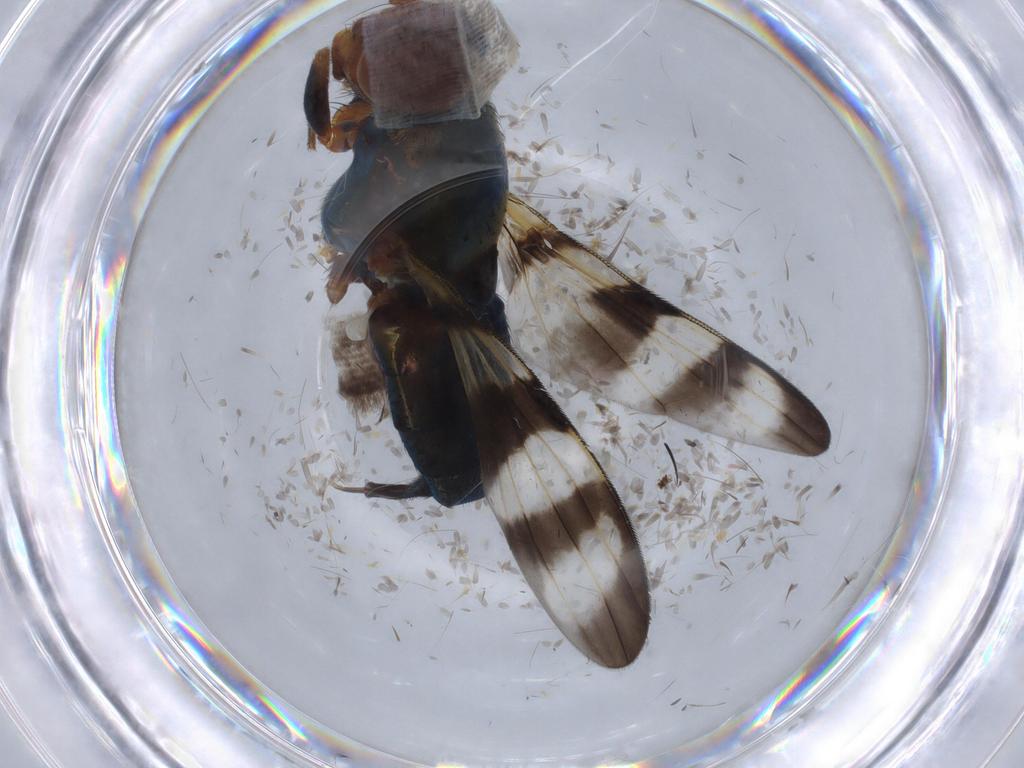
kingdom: Animalia
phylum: Arthropoda
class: Insecta
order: Diptera
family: Ulidiidae
